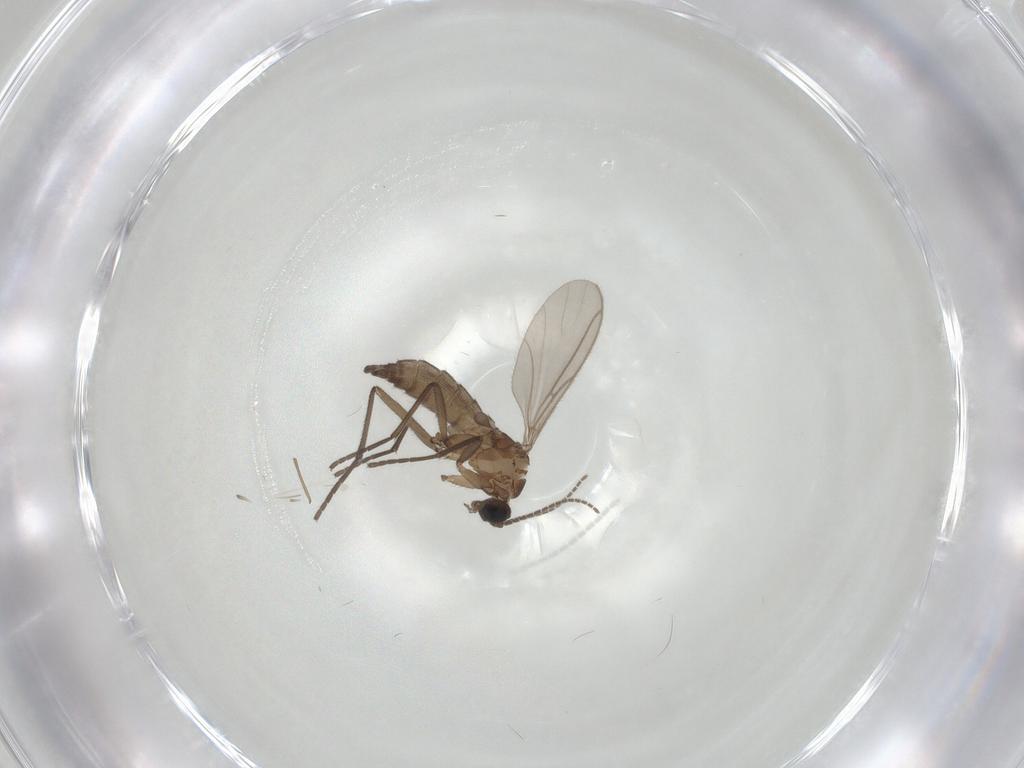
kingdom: Animalia
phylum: Arthropoda
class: Insecta
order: Diptera
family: Chironomidae
